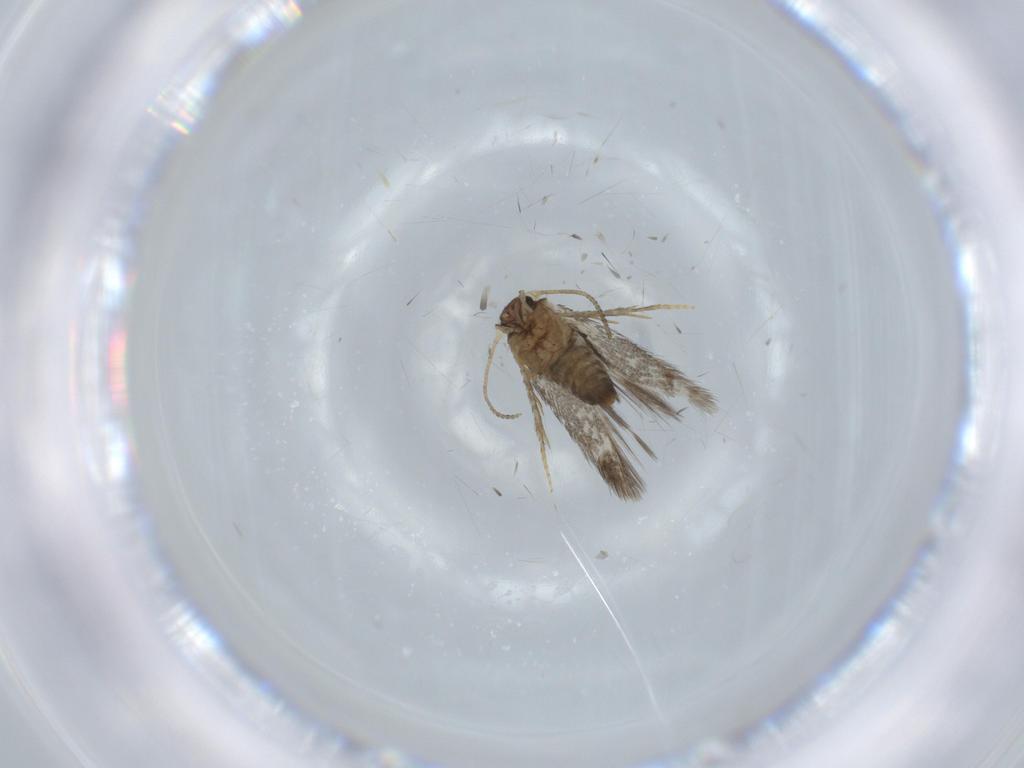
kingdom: Animalia
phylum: Arthropoda
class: Insecta
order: Lepidoptera
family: Nepticulidae
